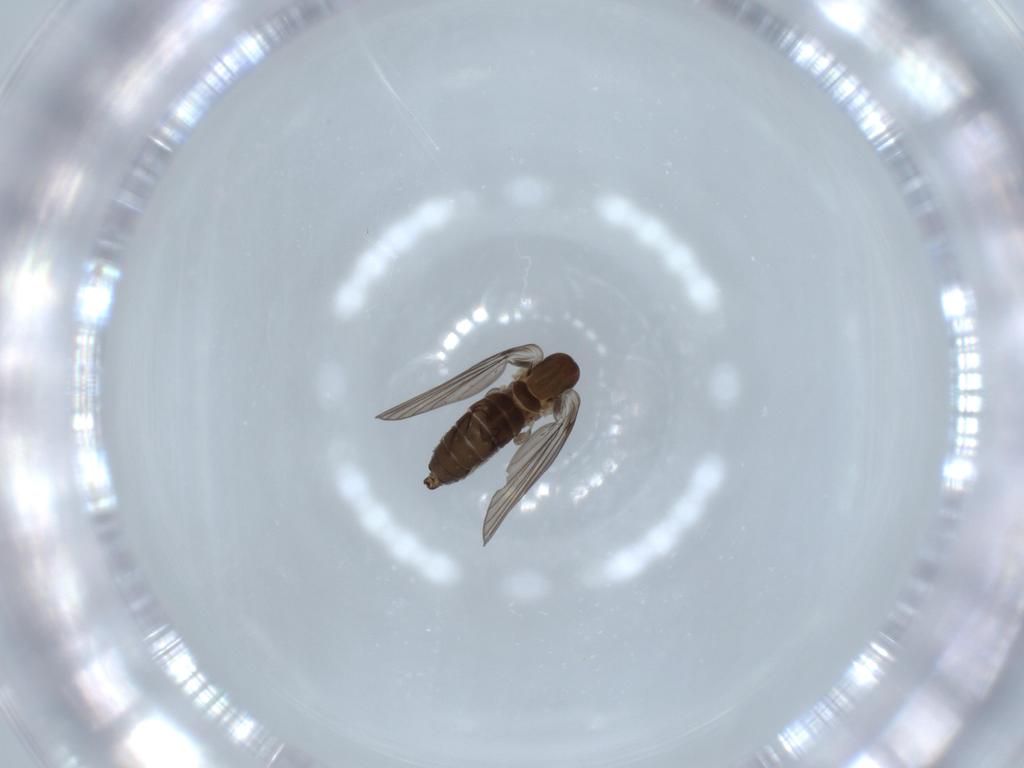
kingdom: Animalia
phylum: Arthropoda
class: Insecta
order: Diptera
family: Psychodidae
